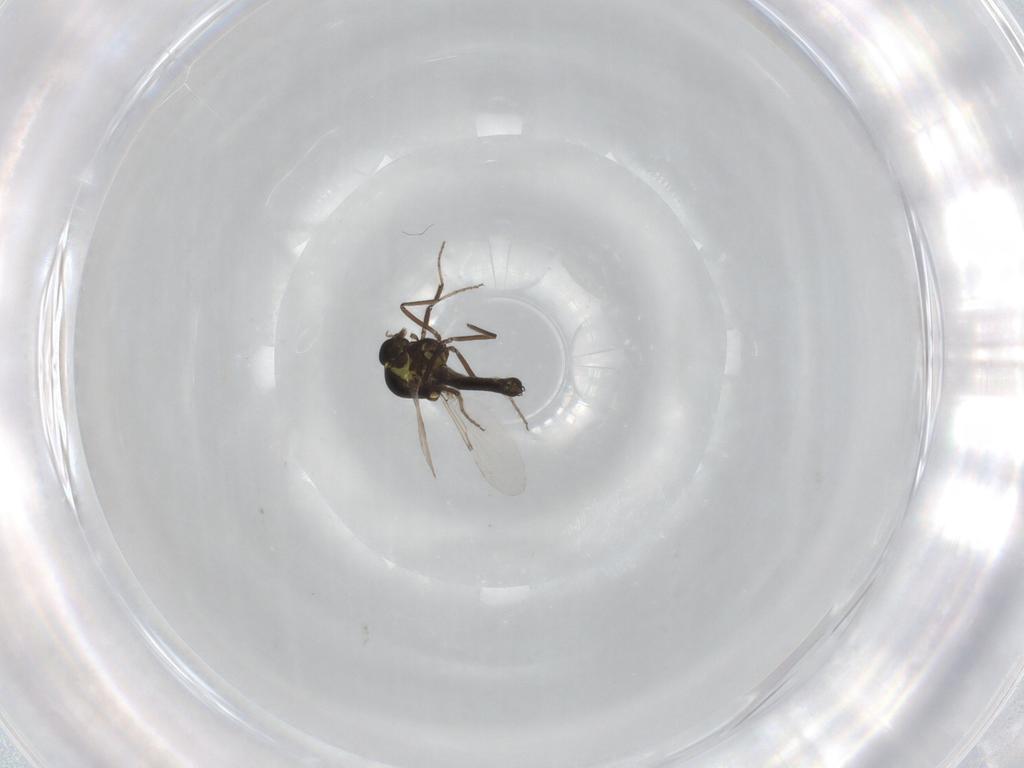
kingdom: Animalia
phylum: Arthropoda
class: Insecta
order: Diptera
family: Ceratopogonidae
